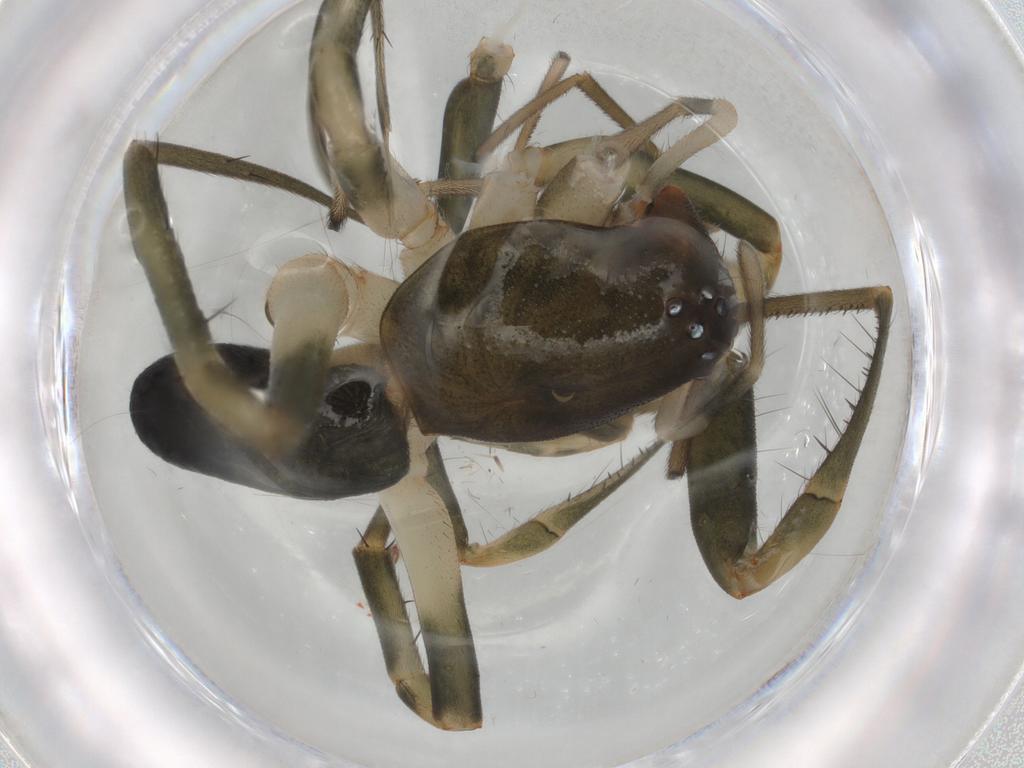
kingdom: Animalia
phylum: Arthropoda
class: Arachnida
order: Araneae
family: Trachelidae
